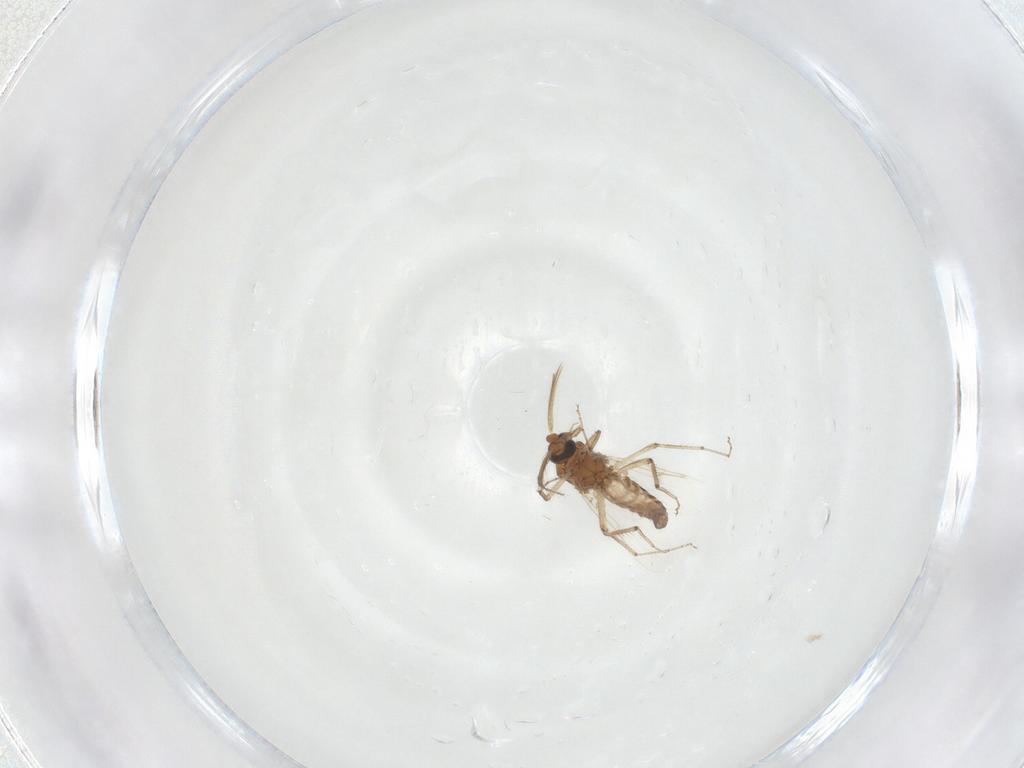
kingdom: Animalia
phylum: Arthropoda
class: Insecta
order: Diptera
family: Ceratopogonidae
